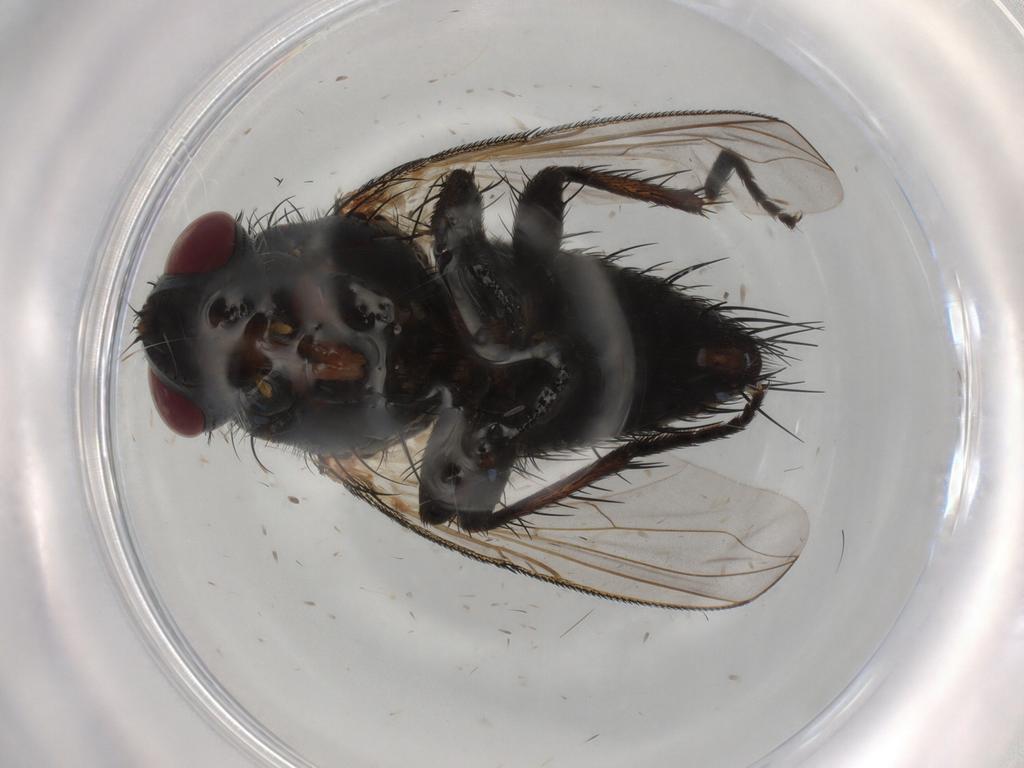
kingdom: Animalia
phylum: Arthropoda
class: Insecta
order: Diptera
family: Tachinidae
